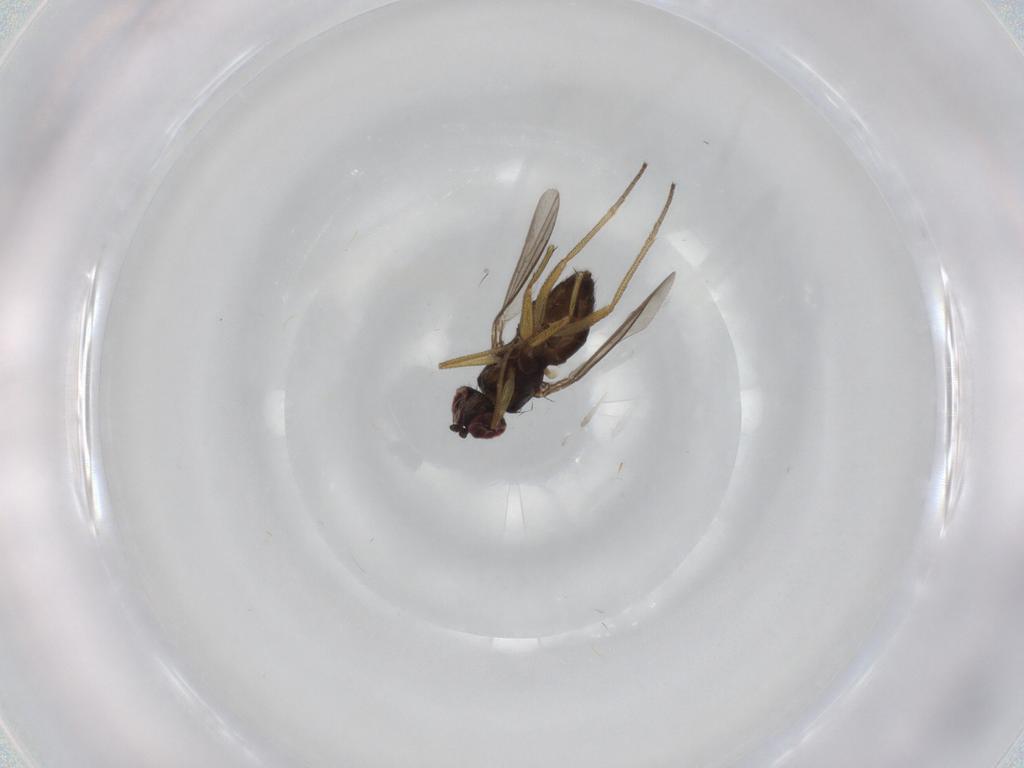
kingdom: Animalia
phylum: Arthropoda
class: Insecta
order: Diptera
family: Dolichopodidae
